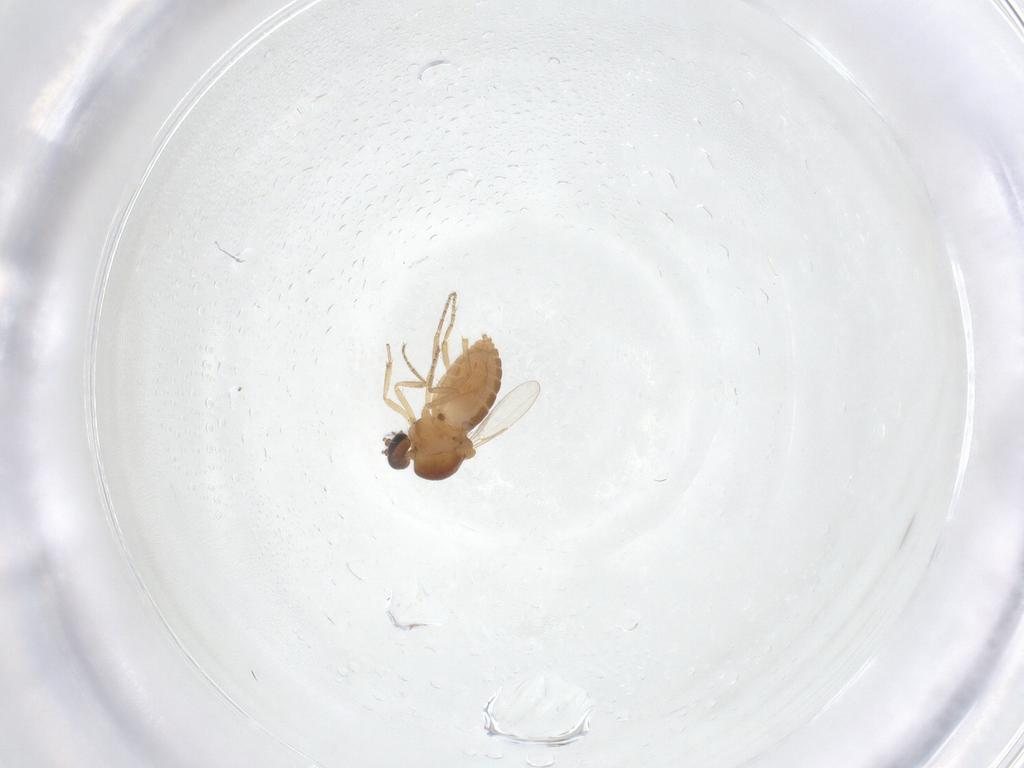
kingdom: Animalia
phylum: Arthropoda
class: Insecta
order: Diptera
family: Ceratopogonidae
